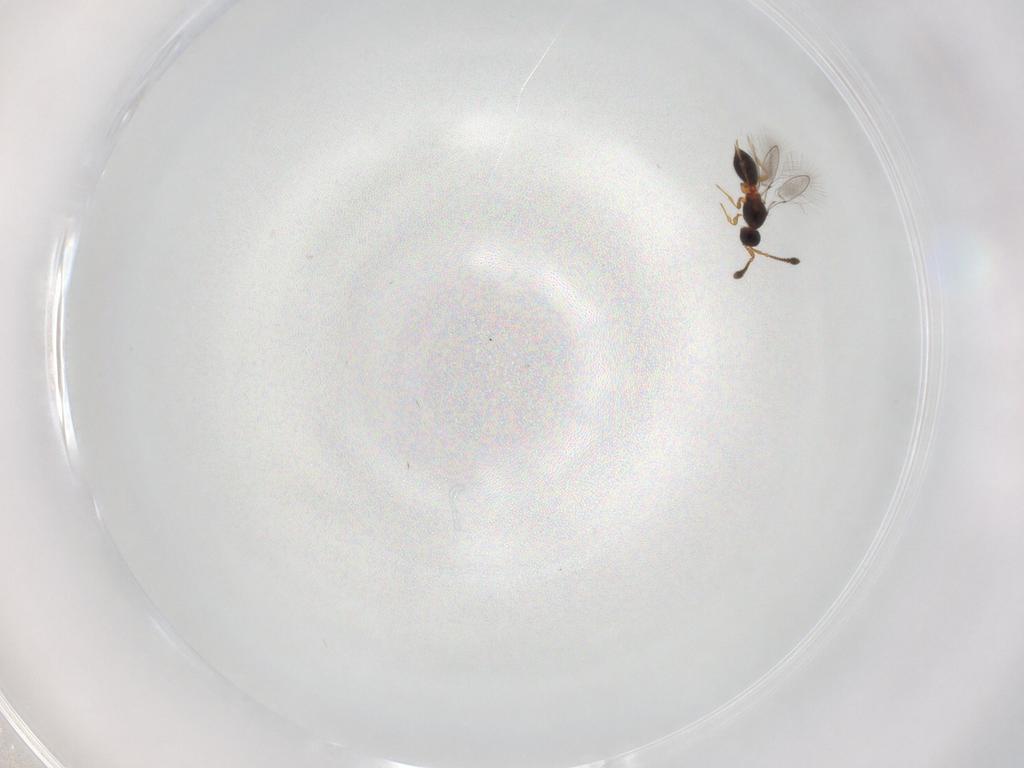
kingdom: Animalia
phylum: Arthropoda
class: Insecta
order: Hymenoptera
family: Diapriidae
